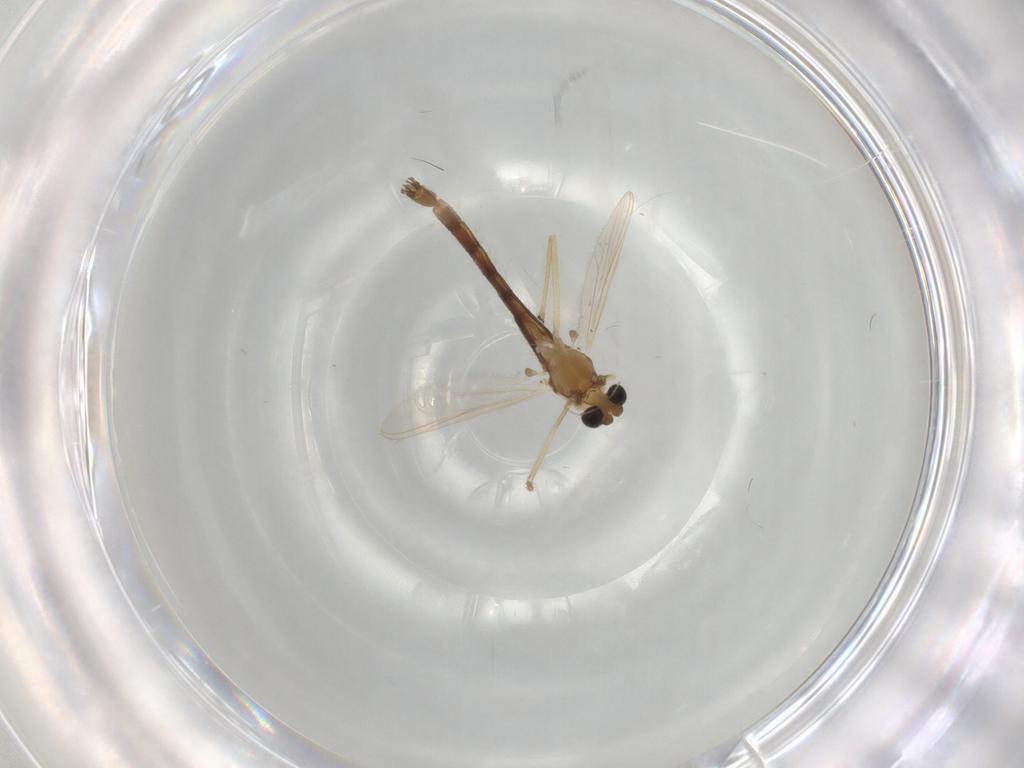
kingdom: Animalia
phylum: Arthropoda
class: Insecta
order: Diptera
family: Chironomidae
